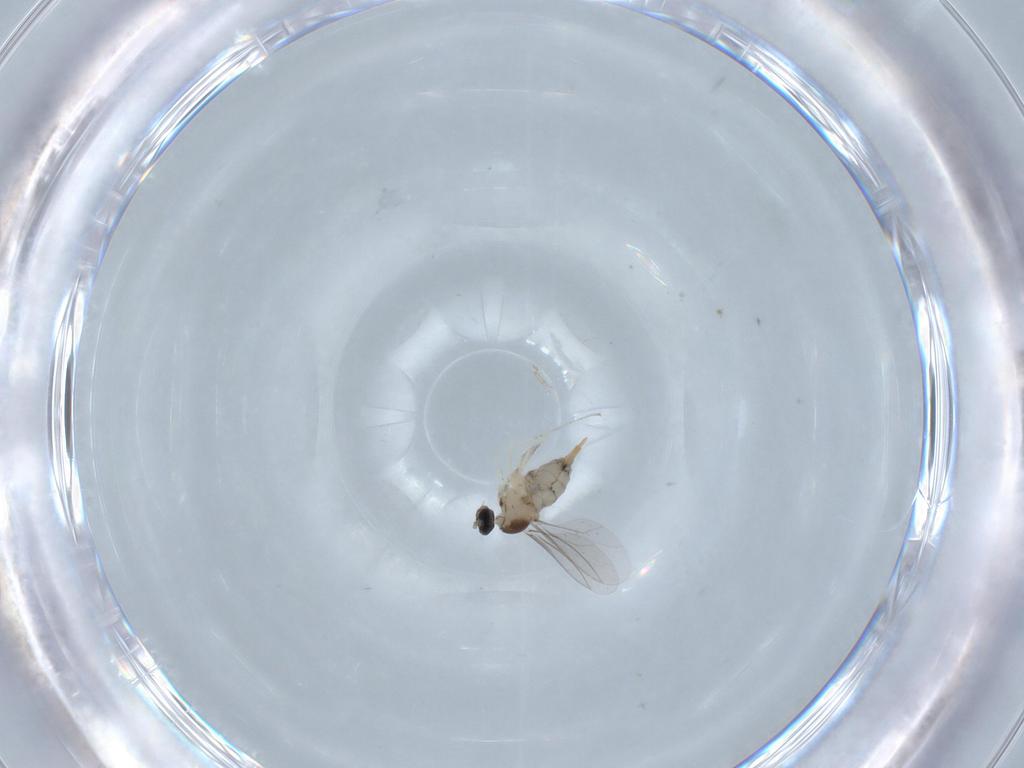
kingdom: Animalia
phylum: Arthropoda
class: Insecta
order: Diptera
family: Cecidomyiidae
